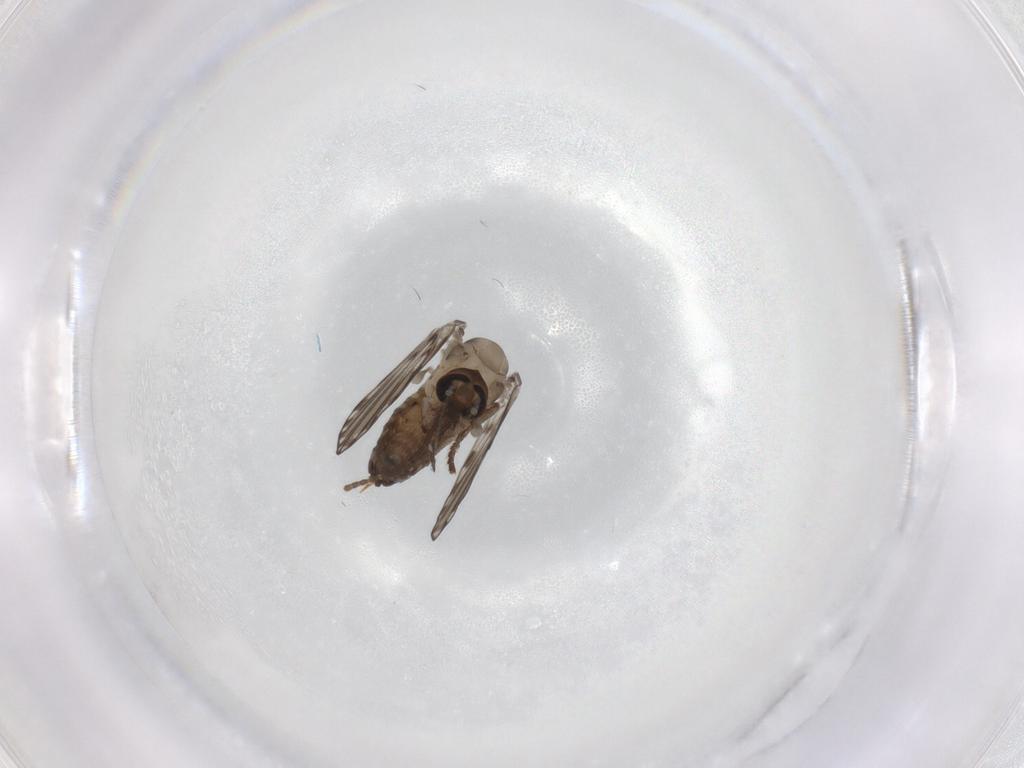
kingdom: Animalia
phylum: Arthropoda
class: Insecta
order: Diptera
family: Psychodidae
